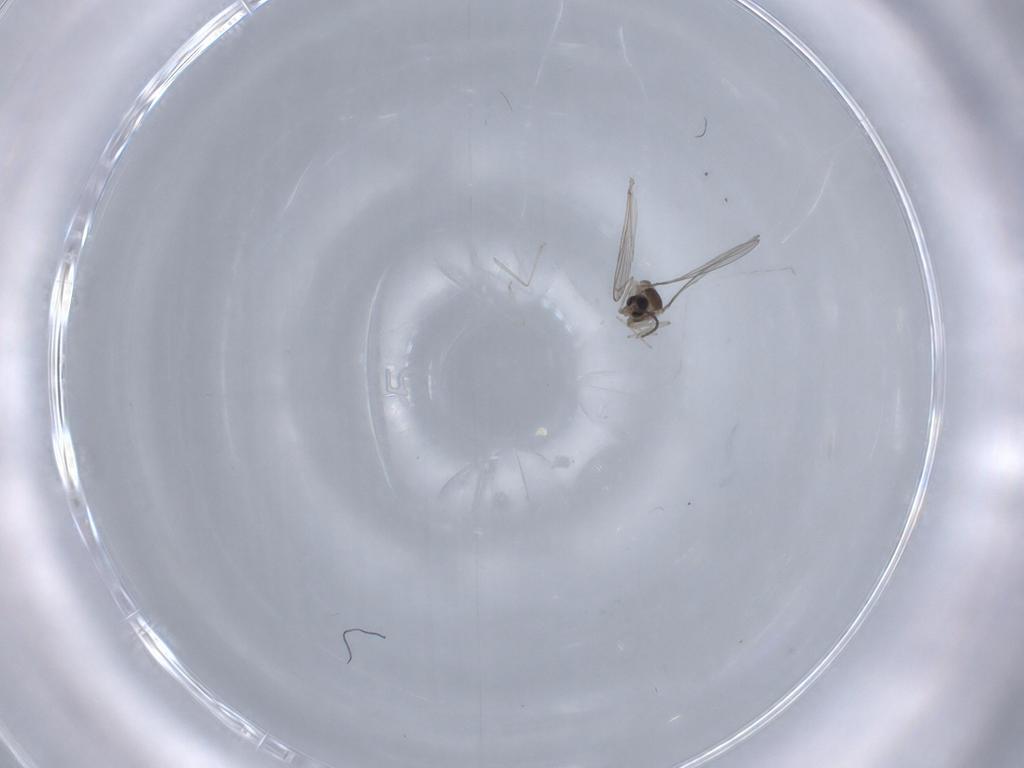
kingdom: Animalia
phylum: Arthropoda
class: Insecta
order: Diptera
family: Cecidomyiidae
